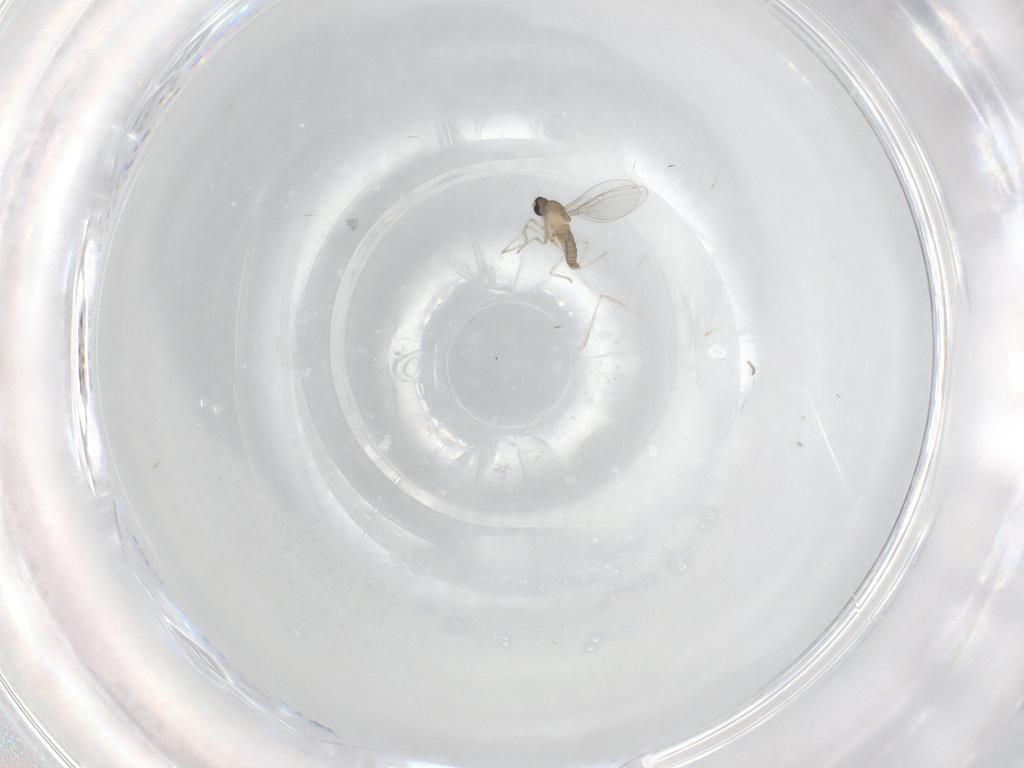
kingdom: Animalia
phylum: Arthropoda
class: Insecta
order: Diptera
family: Cecidomyiidae
